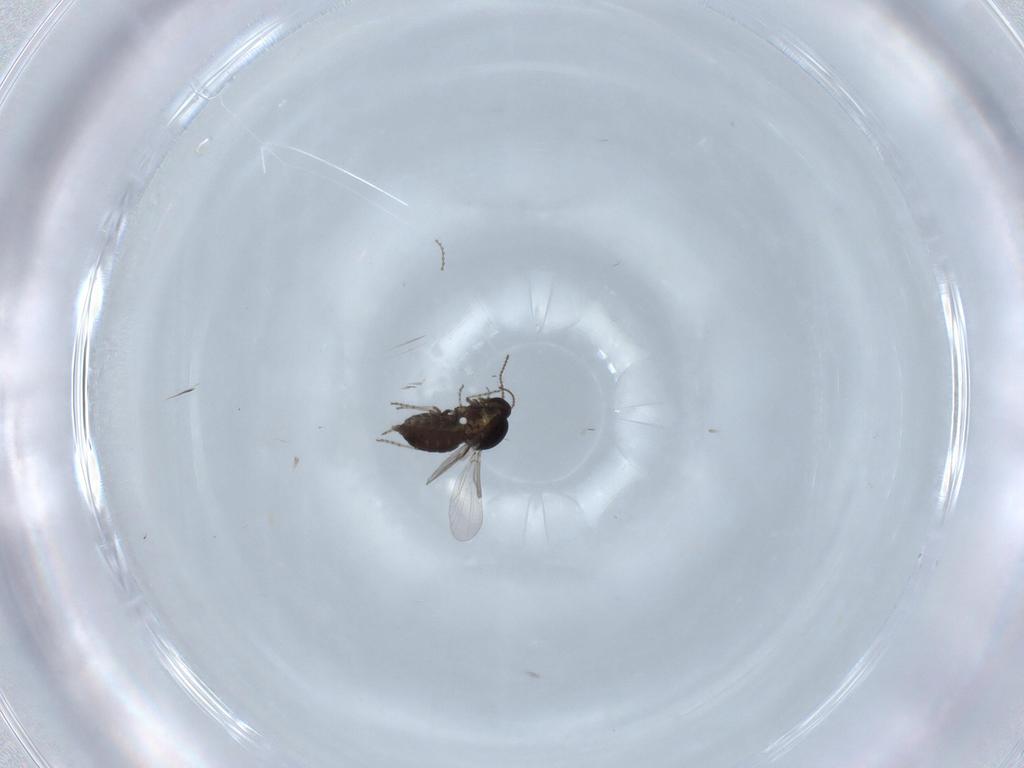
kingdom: Animalia
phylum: Arthropoda
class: Insecta
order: Diptera
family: Ceratopogonidae
